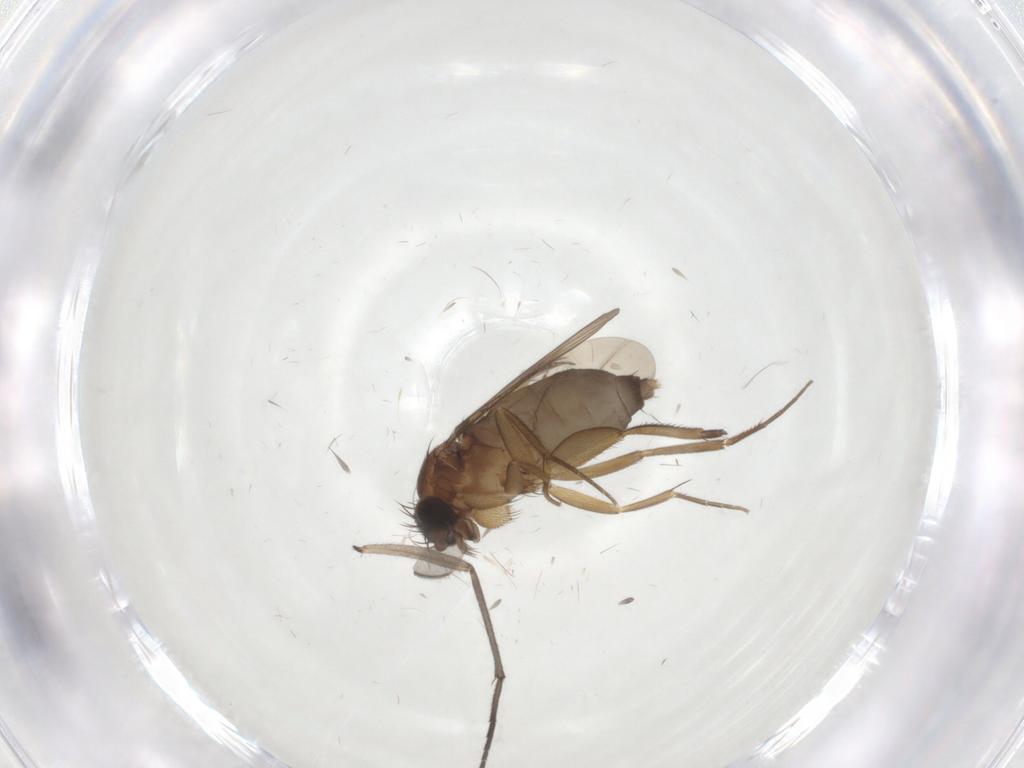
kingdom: Animalia
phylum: Arthropoda
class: Insecta
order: Diptera
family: Phoridae
